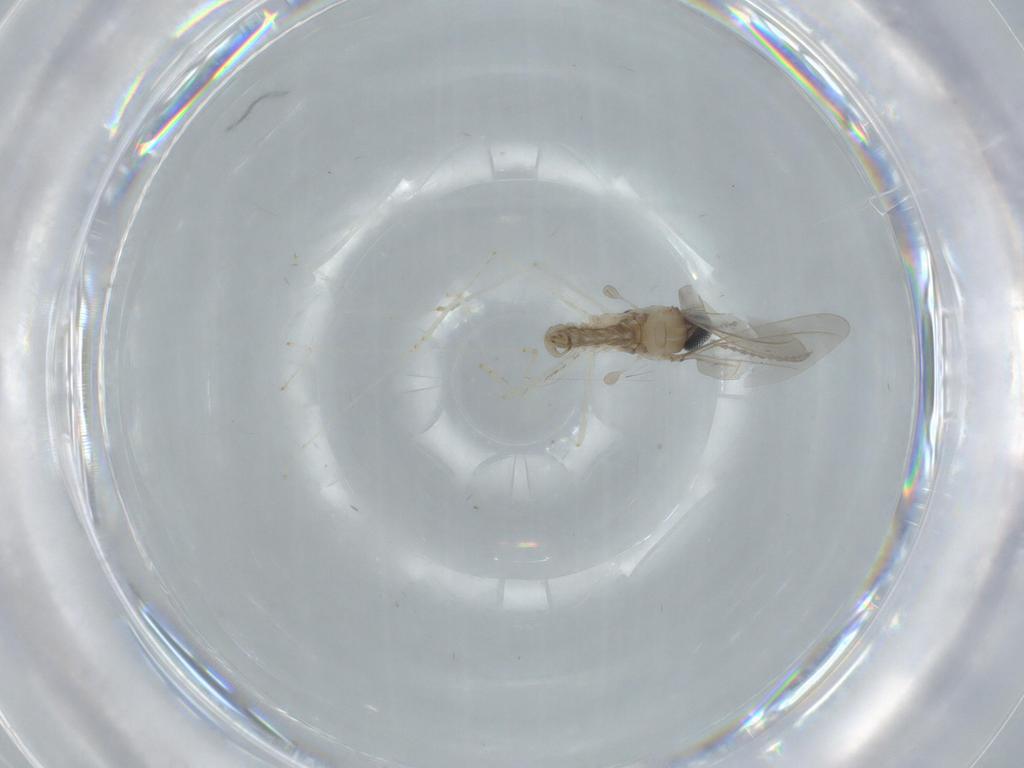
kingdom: Animalia
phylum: Arthropoda
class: Insecta
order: Diptera
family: Cecidomyiidae
